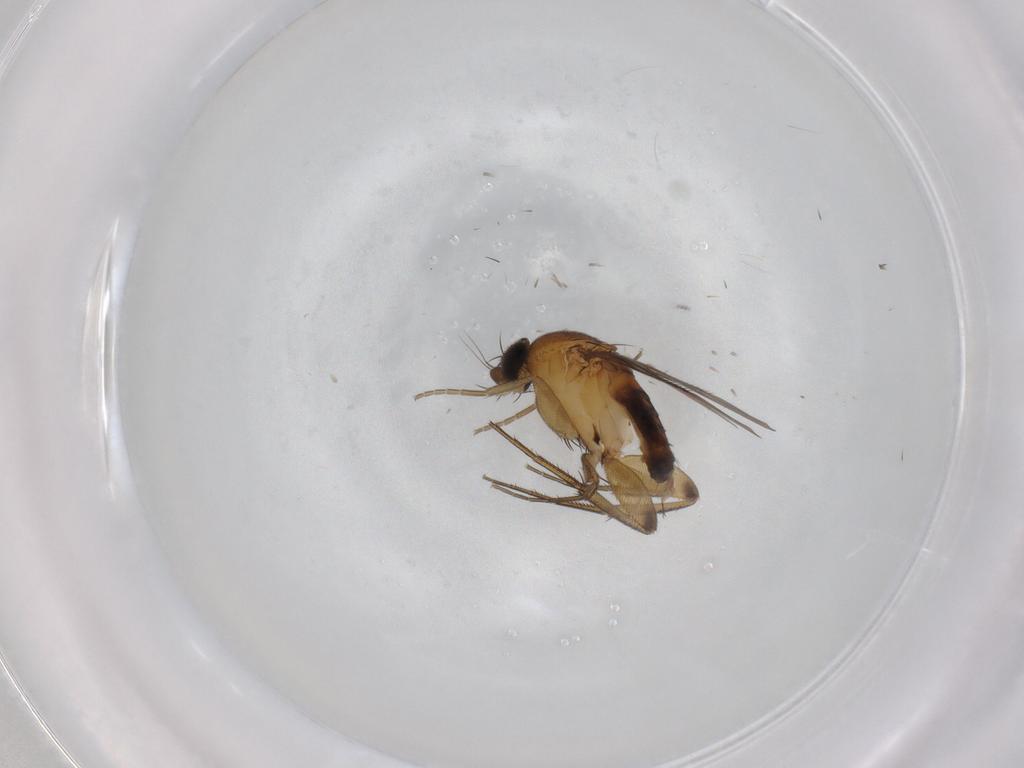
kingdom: Animalia
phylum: Arthropoda
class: Insecta
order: Diptera
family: Phoridae
